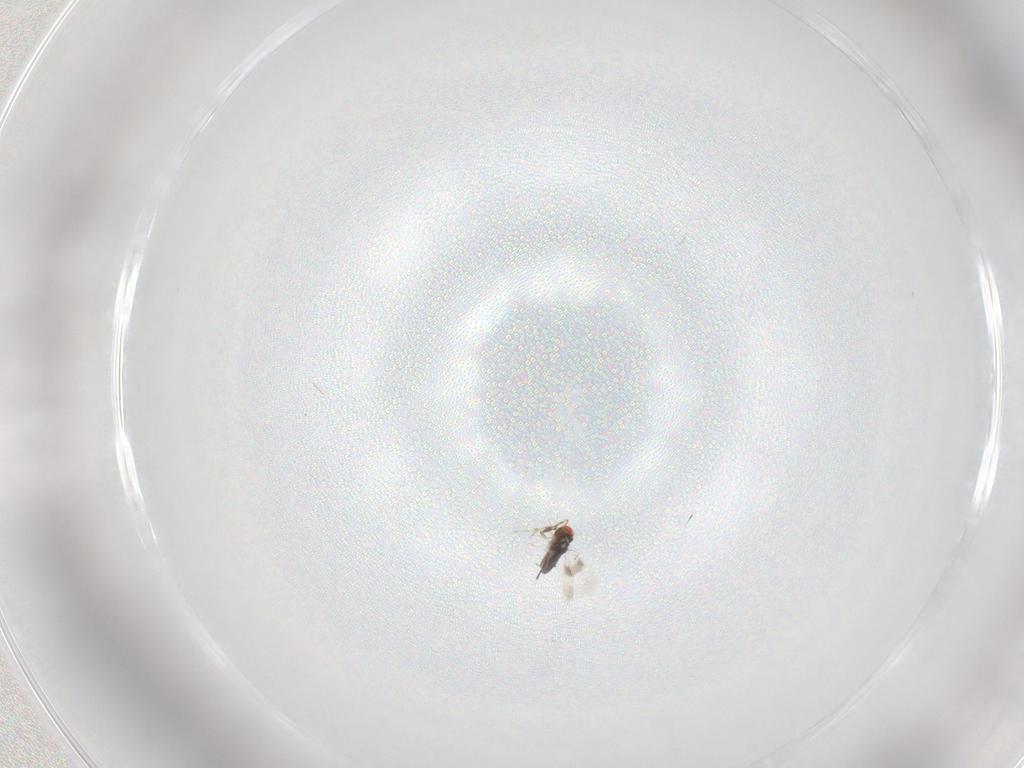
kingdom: Animalia
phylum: Arthropoda
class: Insecta
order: Hymenoptera
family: Azotidae
